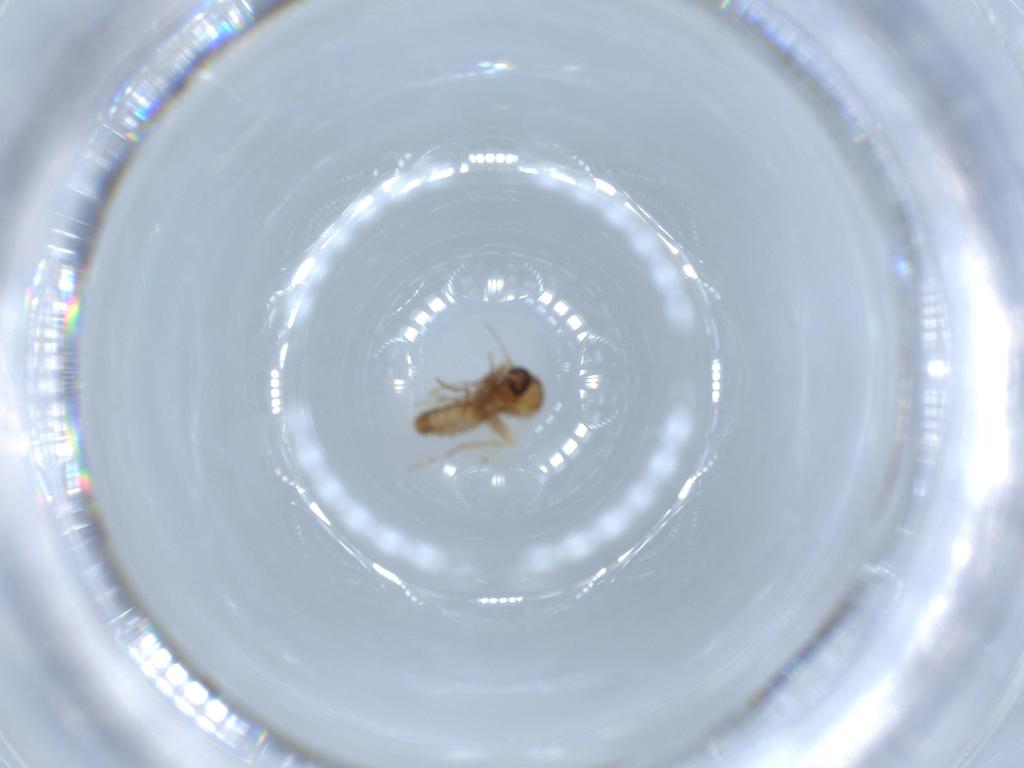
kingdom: Animalia
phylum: Arthropoda
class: Insecta
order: Diptera
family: Ceratopogonidae
